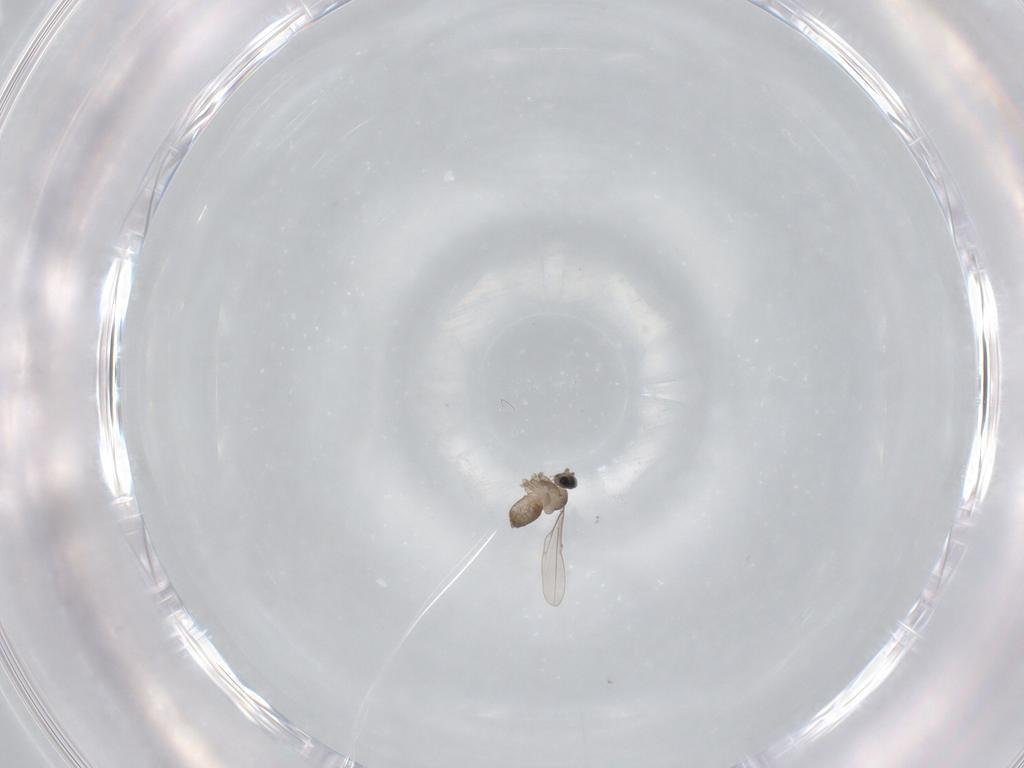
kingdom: Animalia
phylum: Arthropoda
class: Insecta
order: Diptera
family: Cecidomyiidae
